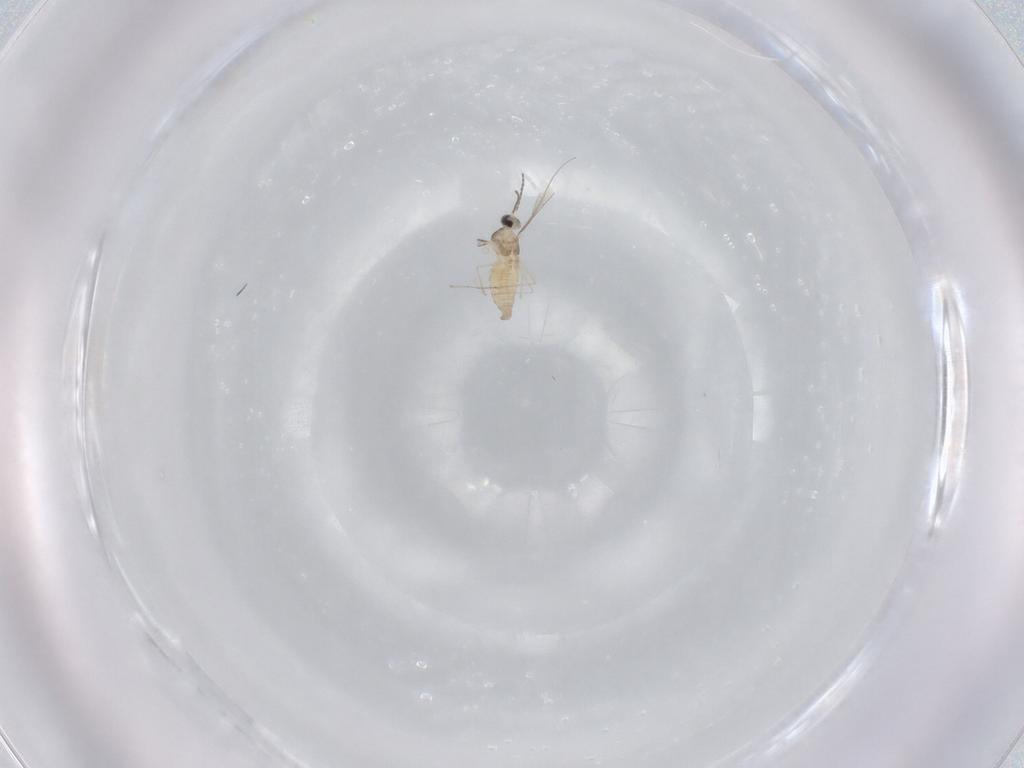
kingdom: Animalia
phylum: Arthropoda
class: Insecta
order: Diptera
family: Cecidomyiidae
